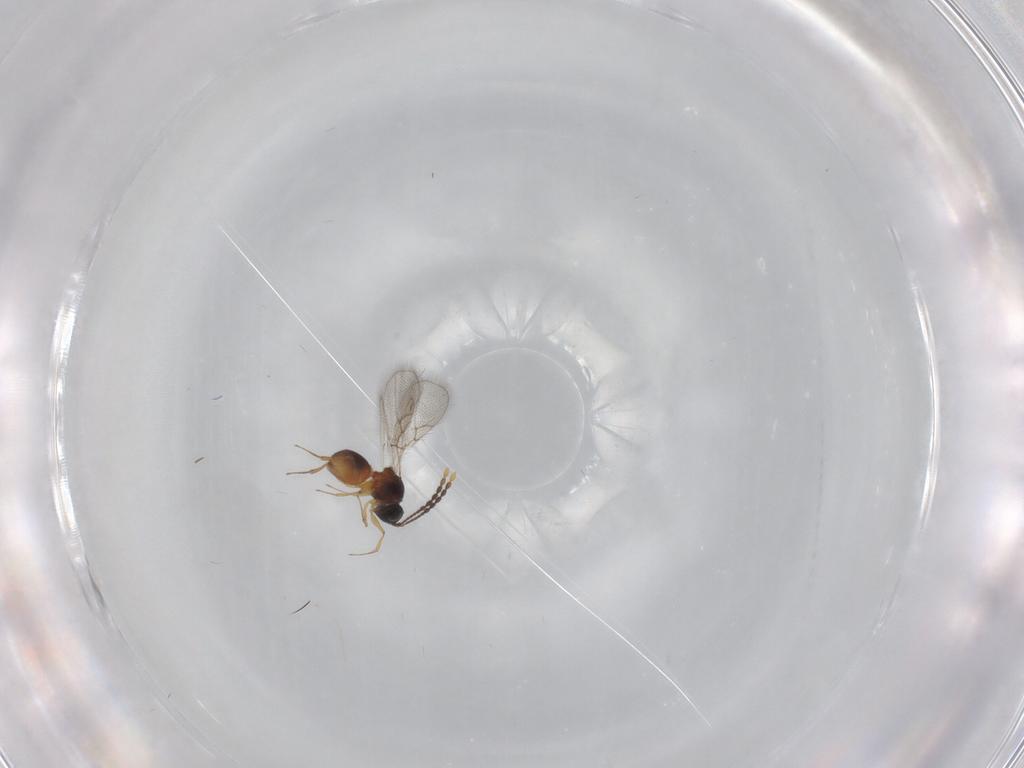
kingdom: Animalia
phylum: Arthropoda
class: Insecta
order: Hymenoptera
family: Figitidae
